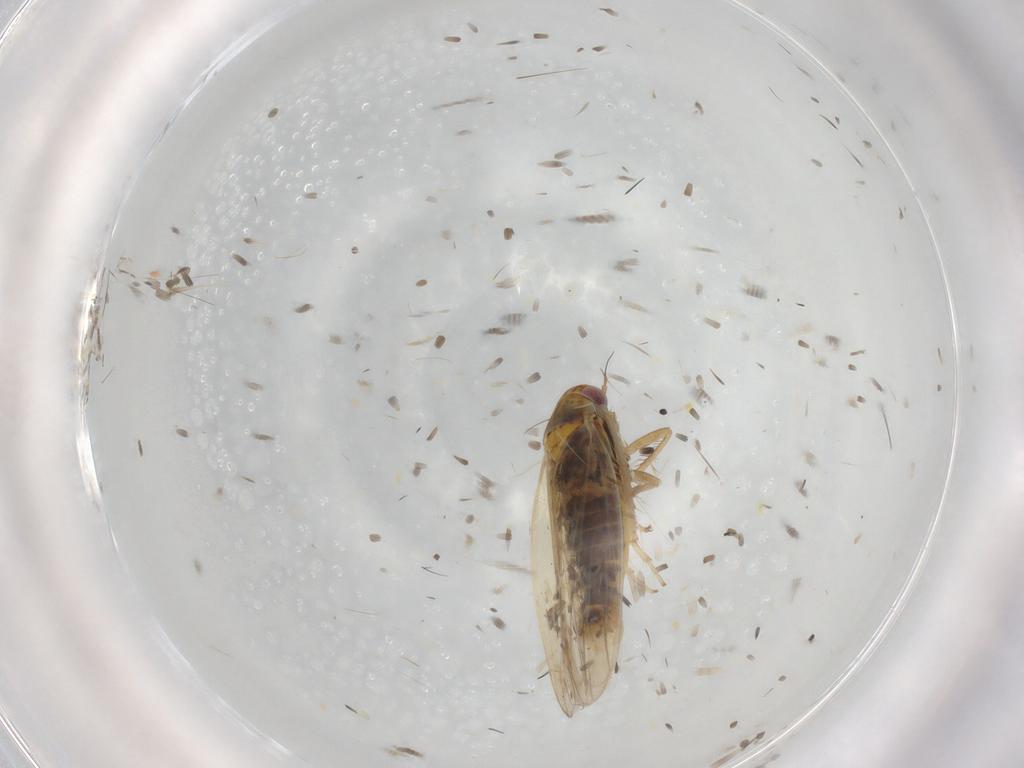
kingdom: Animalia
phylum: Arthropoda
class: Insecta
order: Hemiptera
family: Cicadellidae
